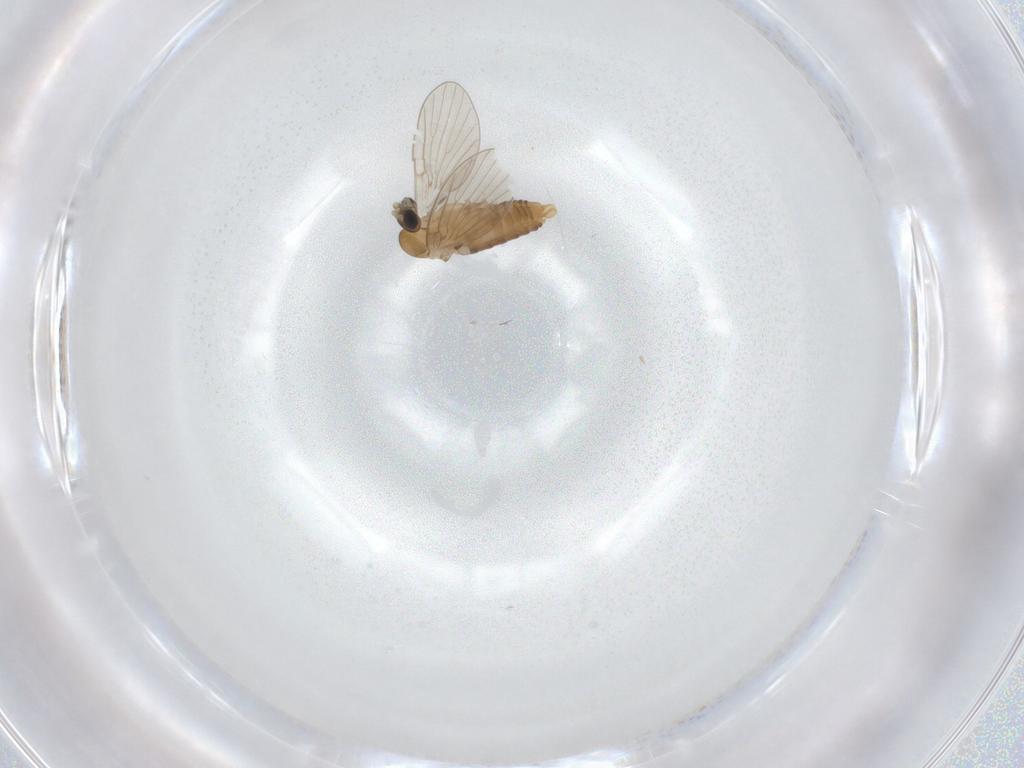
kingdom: Animalia
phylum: Arthropoda
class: Insecta
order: Diptera
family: Psychodidae
